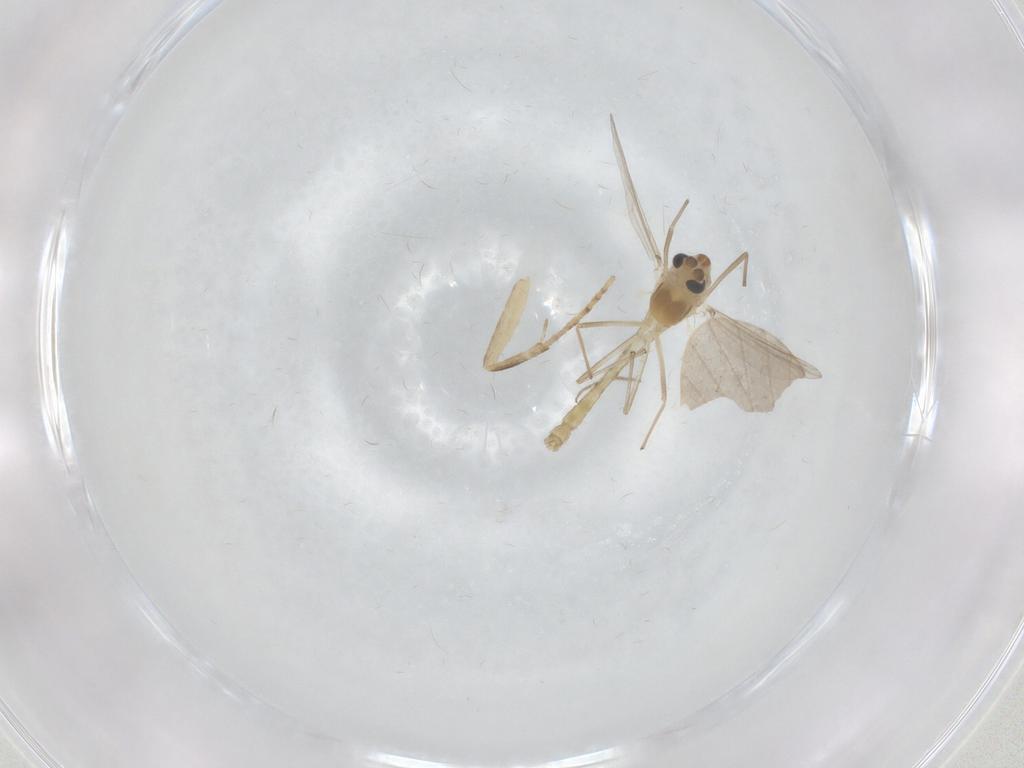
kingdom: Animalia
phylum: Arthropoda
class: Insecta
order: Diptera
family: Chironomidae
